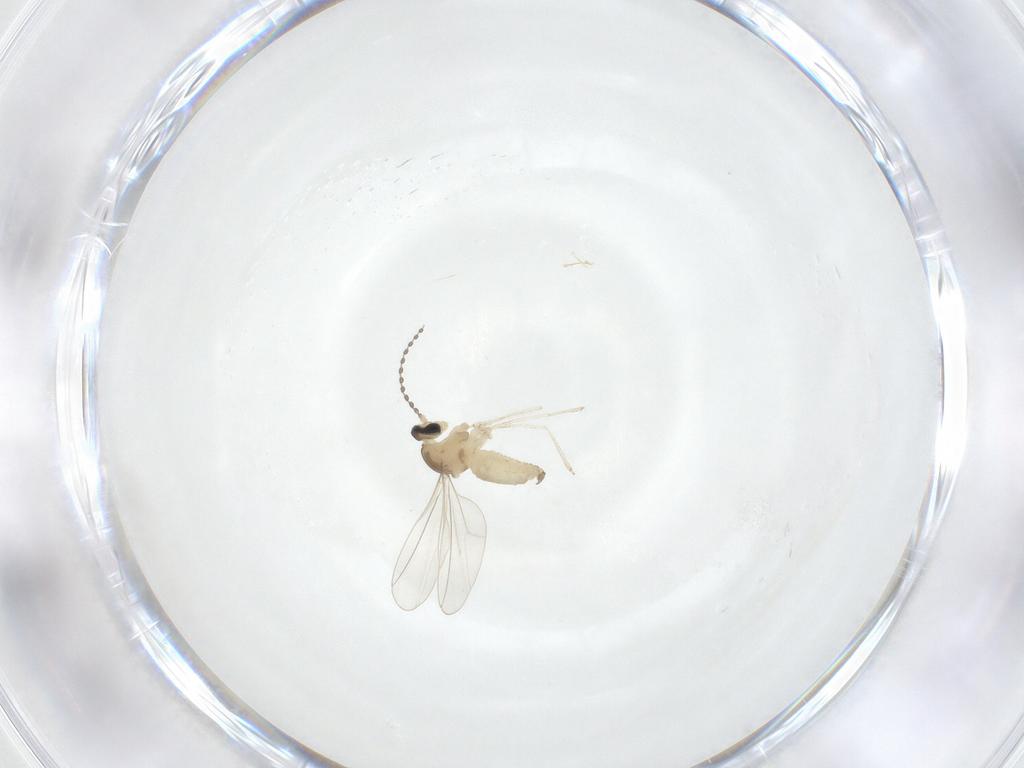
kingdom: Animalia
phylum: Arthropoda
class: Insecta
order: Diptera
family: Cecidomyiidae
